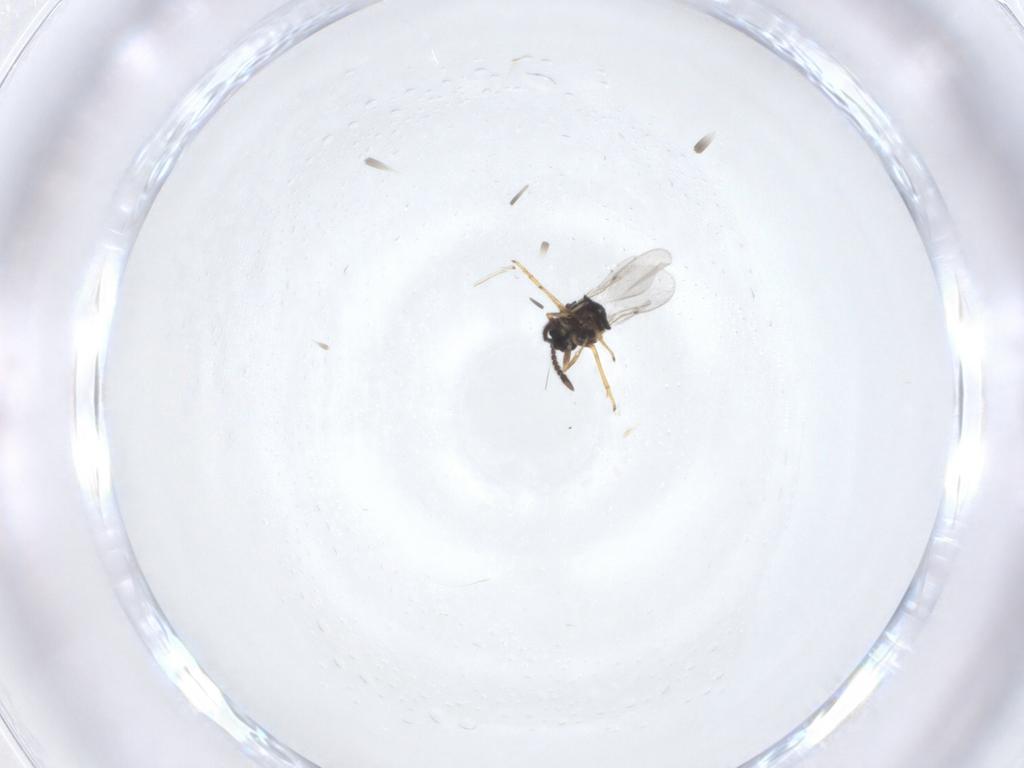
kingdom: Animalia
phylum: Arthropoda
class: Insecta
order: Diptera
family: Cecidomyiidae
